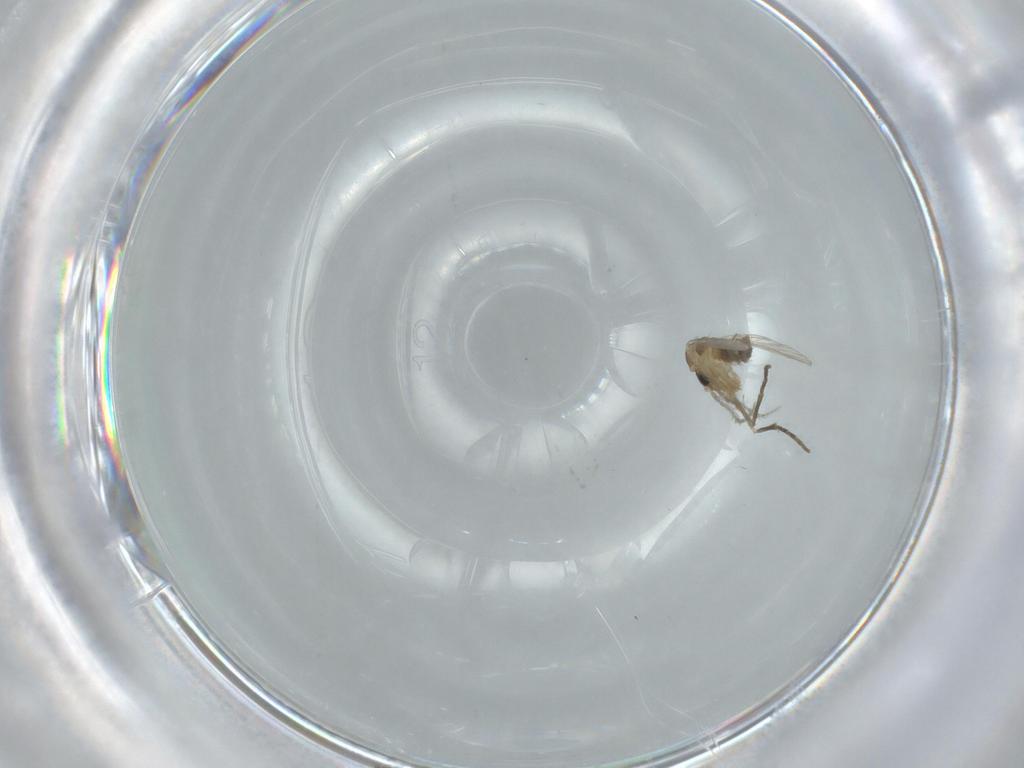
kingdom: Animalia
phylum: Arthropoda
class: Insecta
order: Diptera
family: Psychodidae
